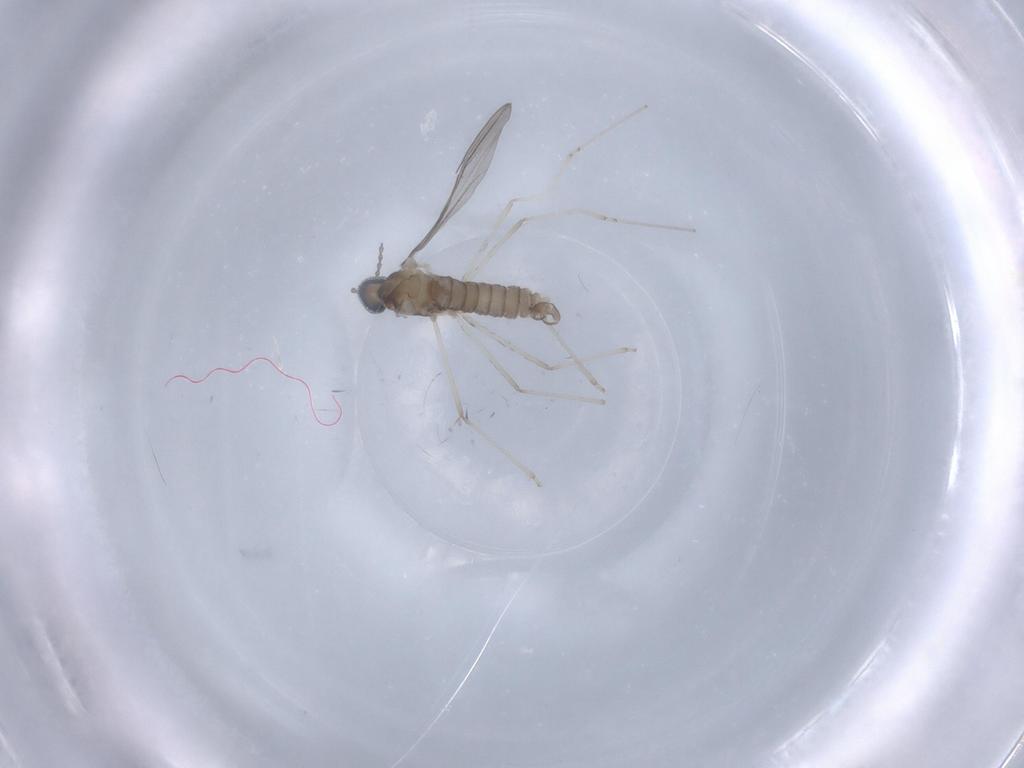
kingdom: Animalia
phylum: Arthropoda
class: Insecta
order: Diptera
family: Cecidomyiidae
